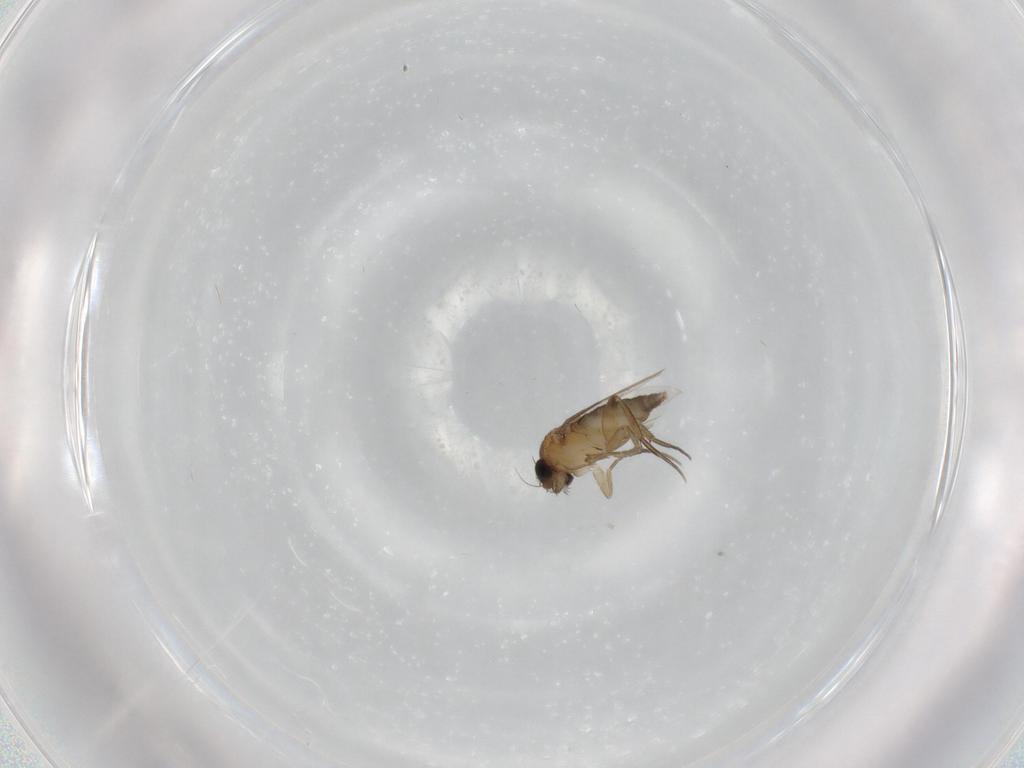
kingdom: Animalia
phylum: Arthropoda
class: Insecta
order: Diptera
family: Phoridae
